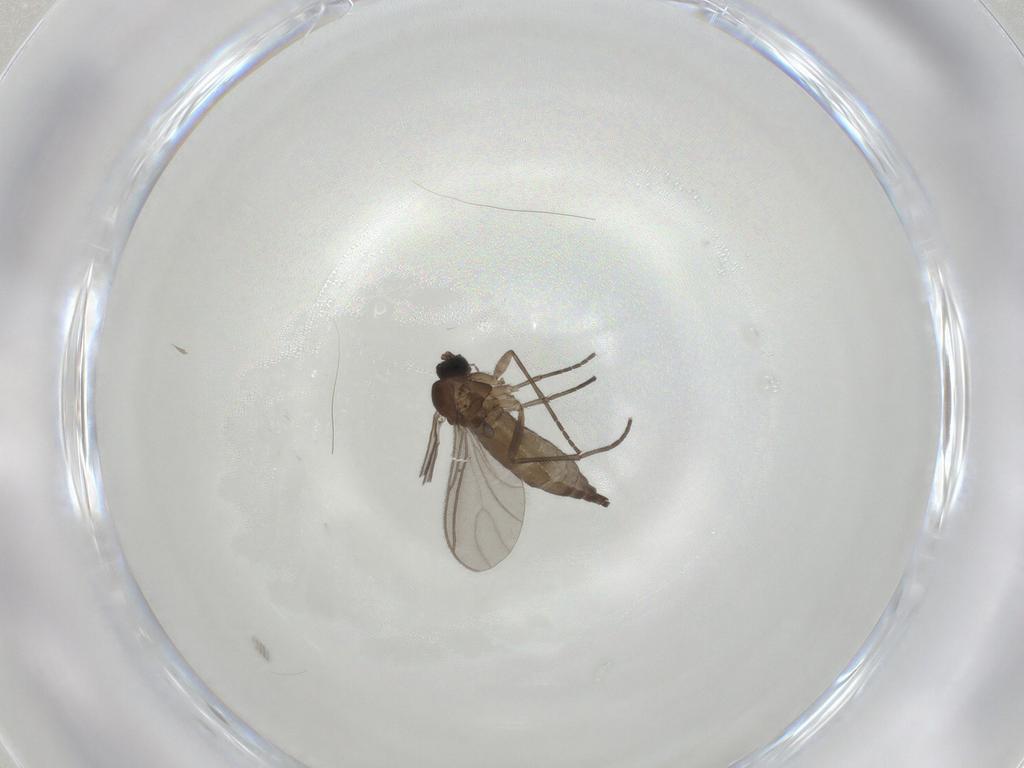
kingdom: Animalia
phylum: Arthropoda
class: Insecta
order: Diptera
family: Sciaridae
